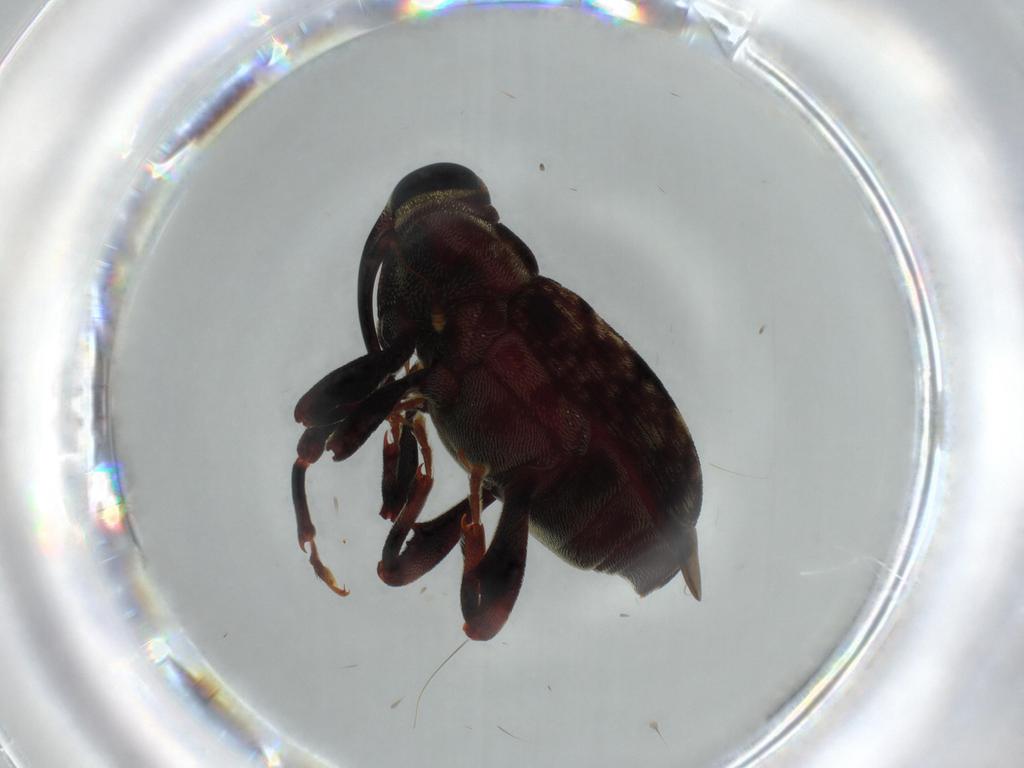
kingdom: Animalia
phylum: Arthropoda
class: Insecta
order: Coleoptera
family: Curculionidae
